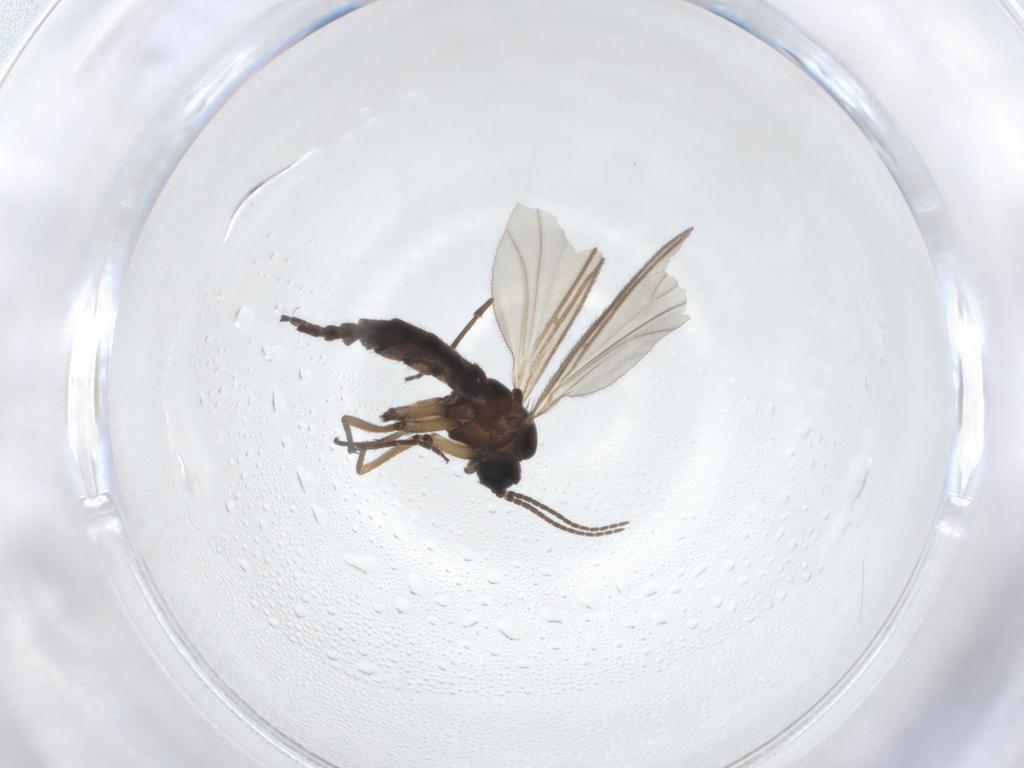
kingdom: Animalia
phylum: Arthropoda
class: Insecta
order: Diptera
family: Sciaridae
